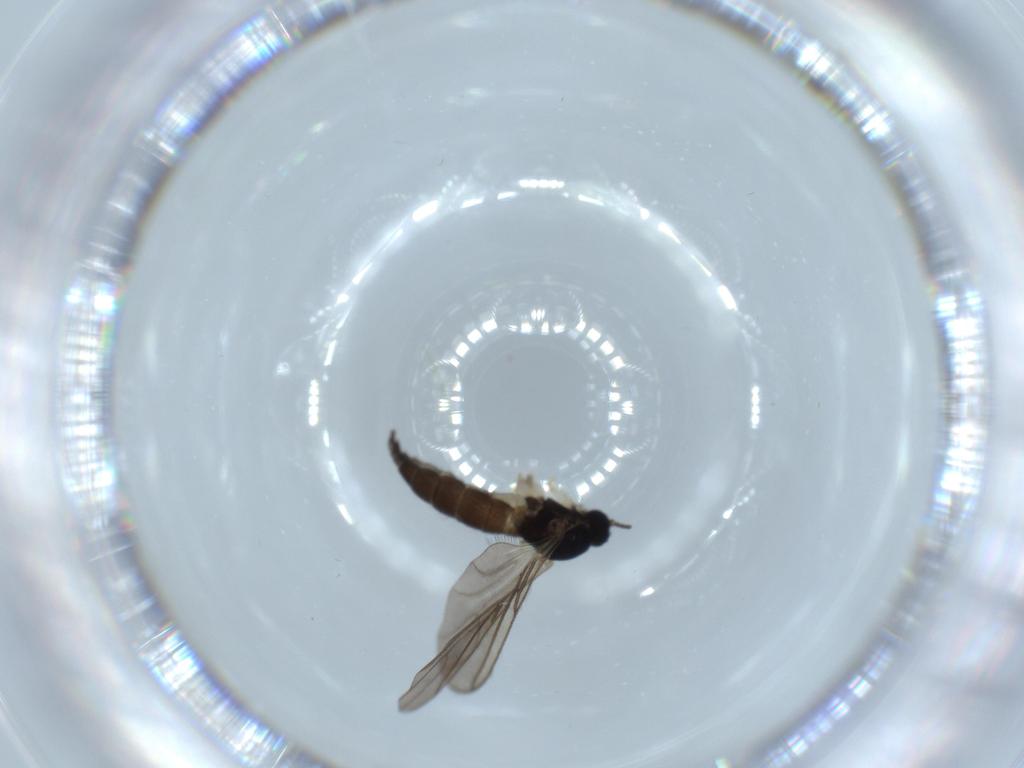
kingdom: Animalia
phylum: Arthropoda
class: Insecta
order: Diptera
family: Sciaridae
